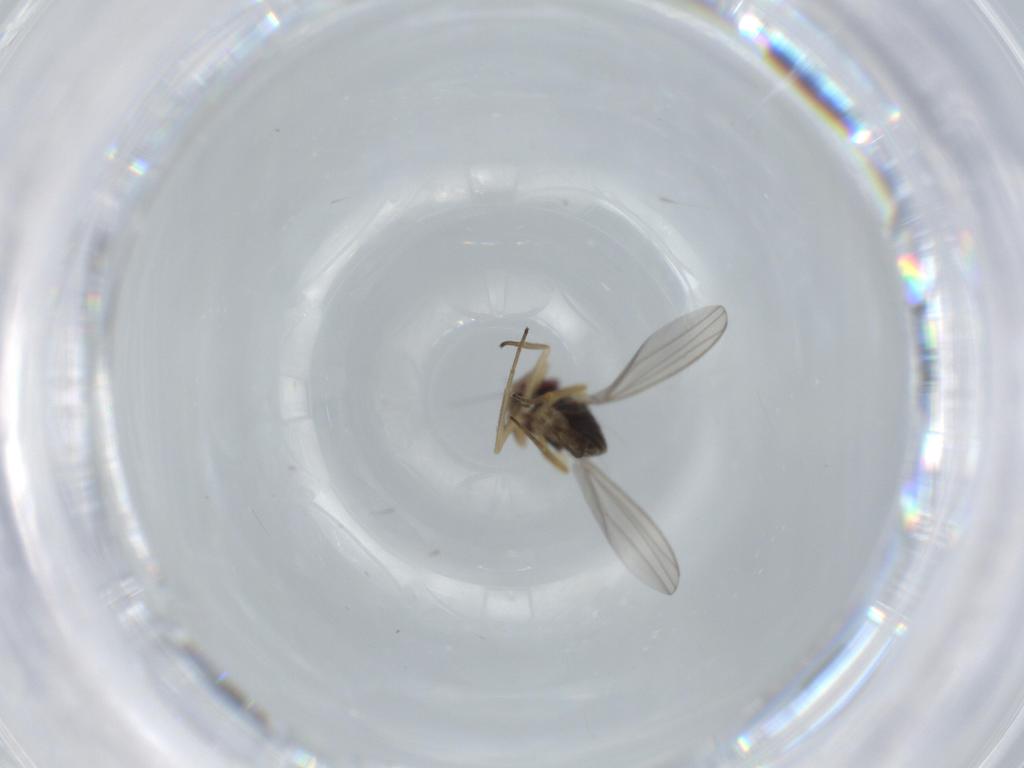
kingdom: Animalia
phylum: Arthropoda
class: Insecta
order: Diptera
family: Dolichopodidae
